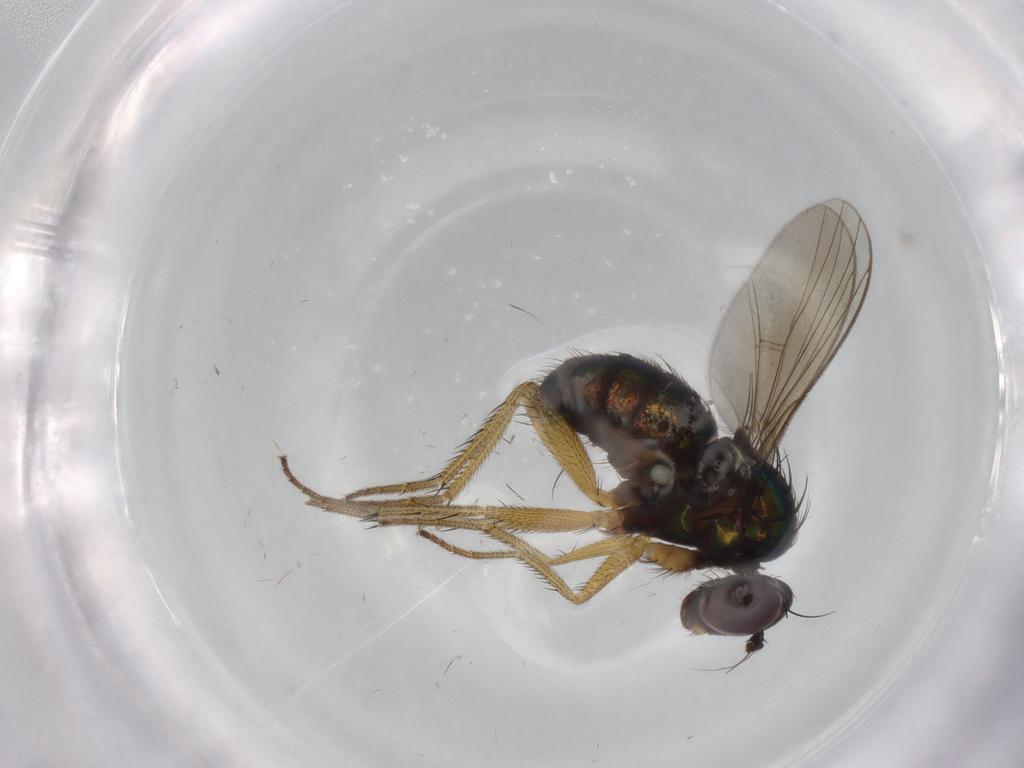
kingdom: Animalia
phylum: Arthropoda
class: Insecta
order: Diptera
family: Dolichopodidae
